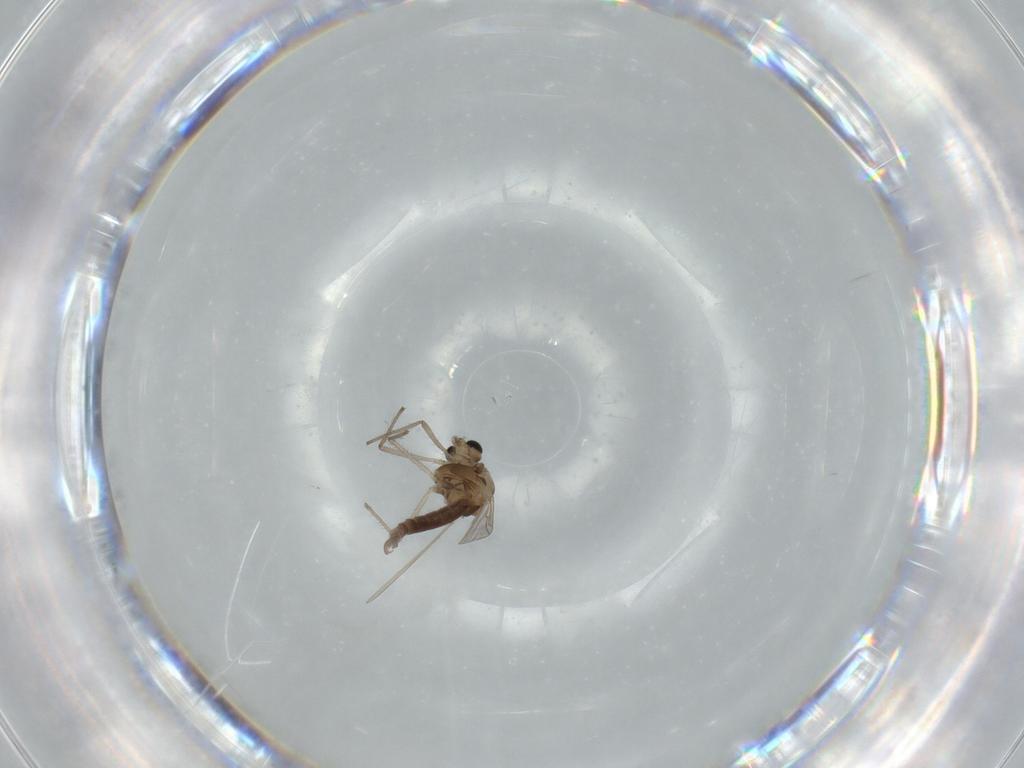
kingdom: Animalia
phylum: Arthropoda
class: Insecta
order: Diptera
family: Chironomidae
